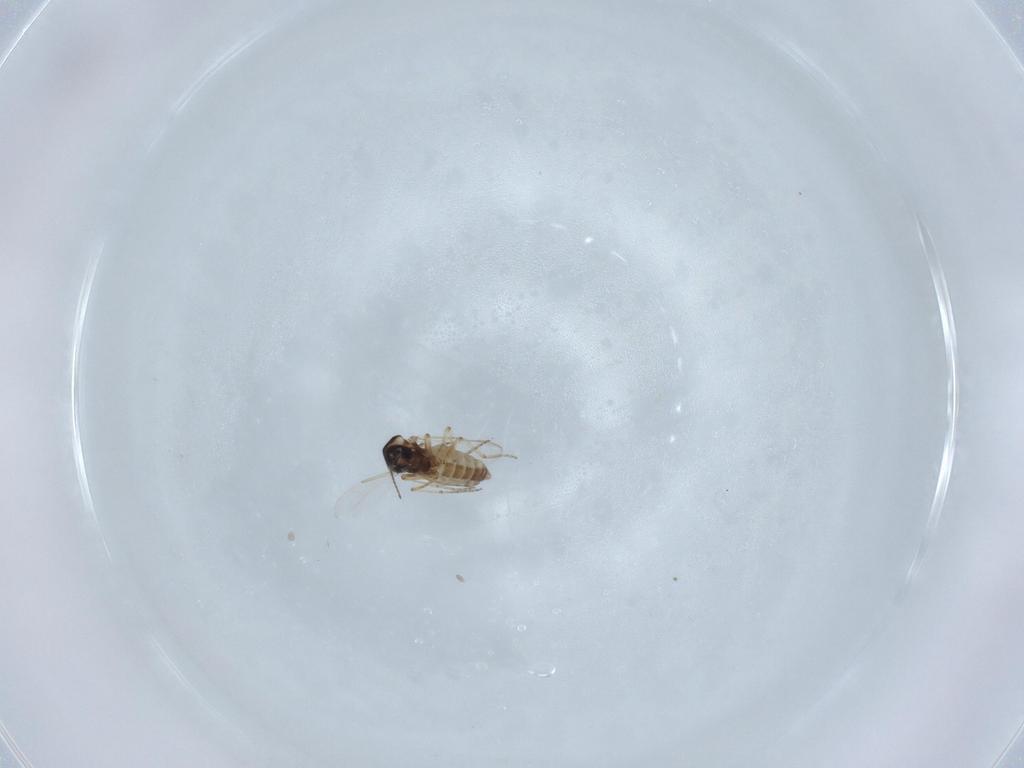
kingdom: Animalia
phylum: Arthropoda
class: Insecta
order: Diptera
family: Ceratopogonidae
